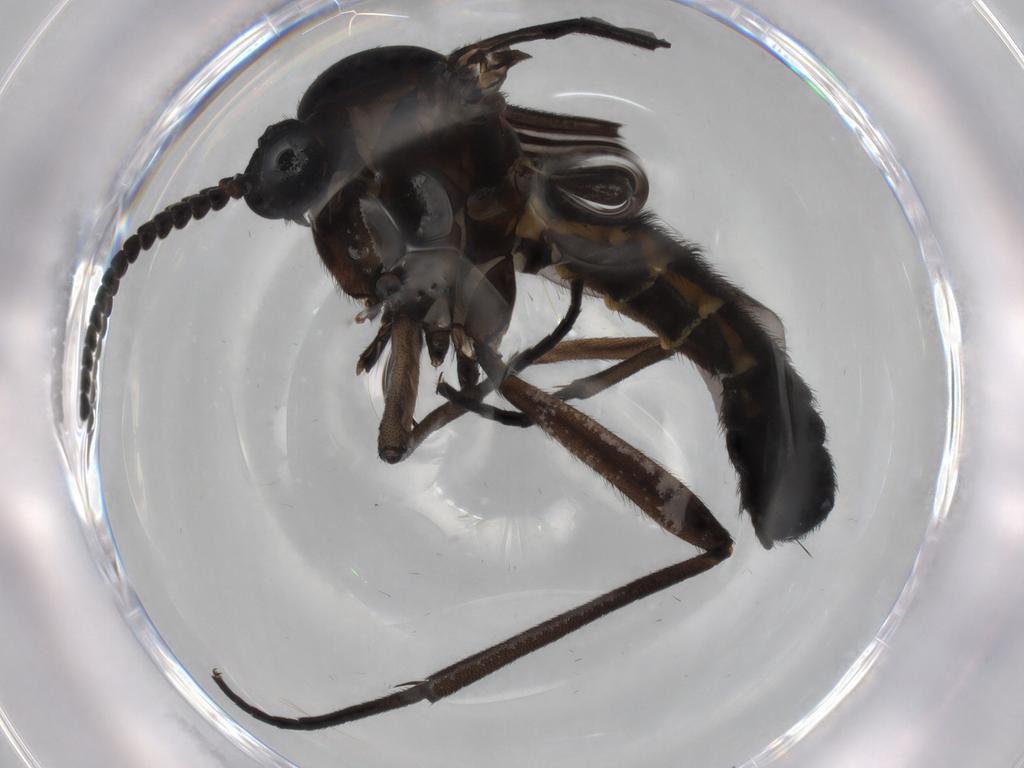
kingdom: Animalia
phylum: Arthropoda
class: Insecta
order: Diptera
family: Sciaridae
